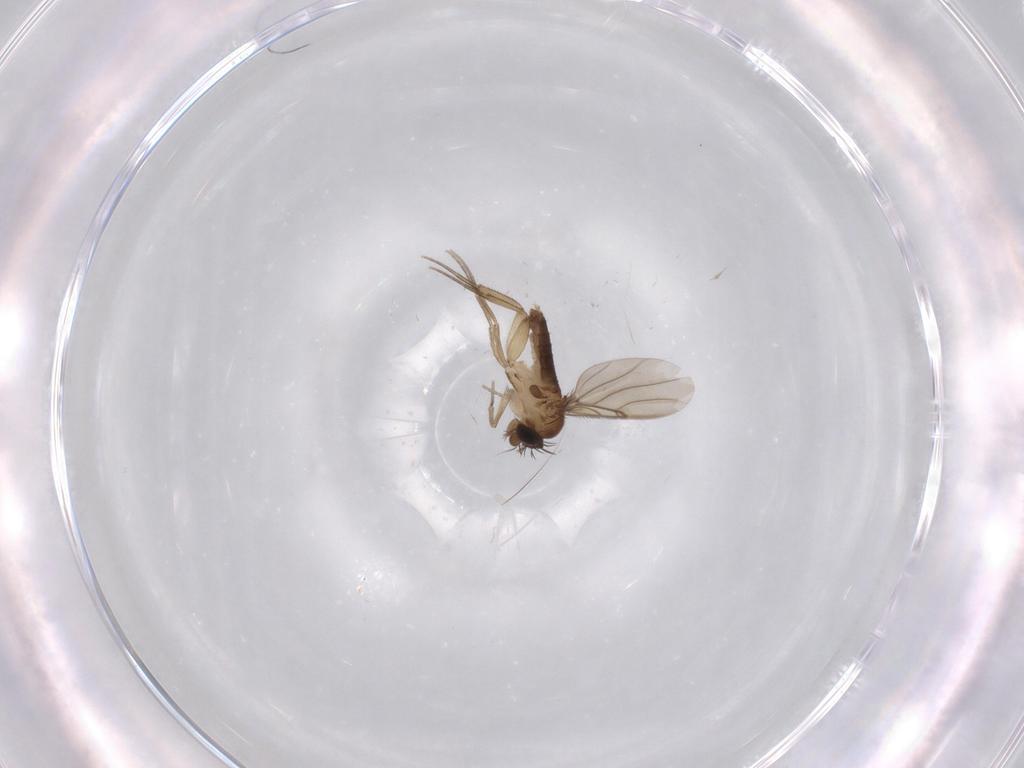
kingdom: Animalia
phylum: Arthropoda
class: Insecta
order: Diptera
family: Phoridae
